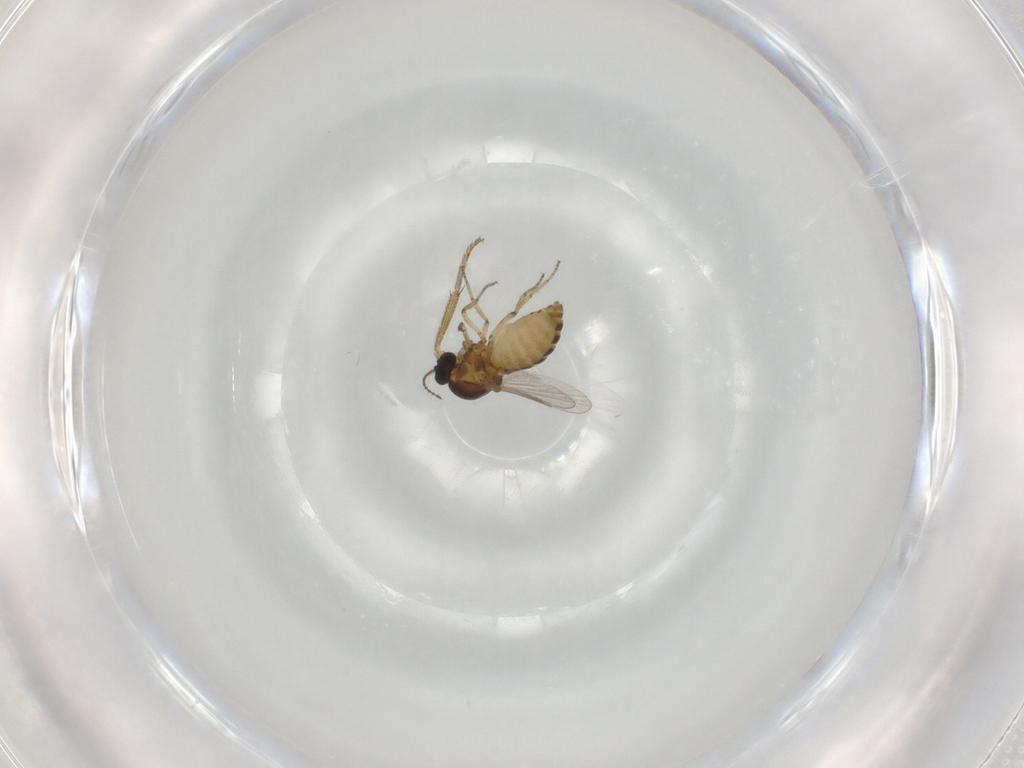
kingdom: Animalia
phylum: Arthropoda
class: Insecta
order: Diptera
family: Ceratopogonidae
